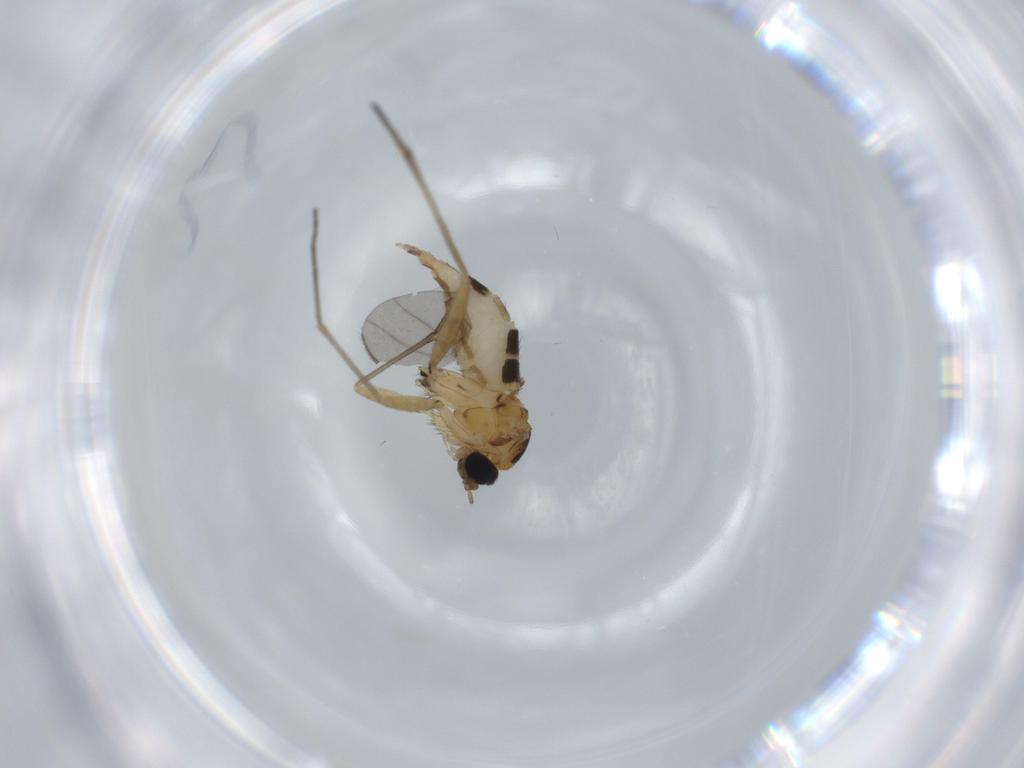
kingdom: Animalia
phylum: Arthropoda
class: Insecta
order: Diptera
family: Sciaridae
